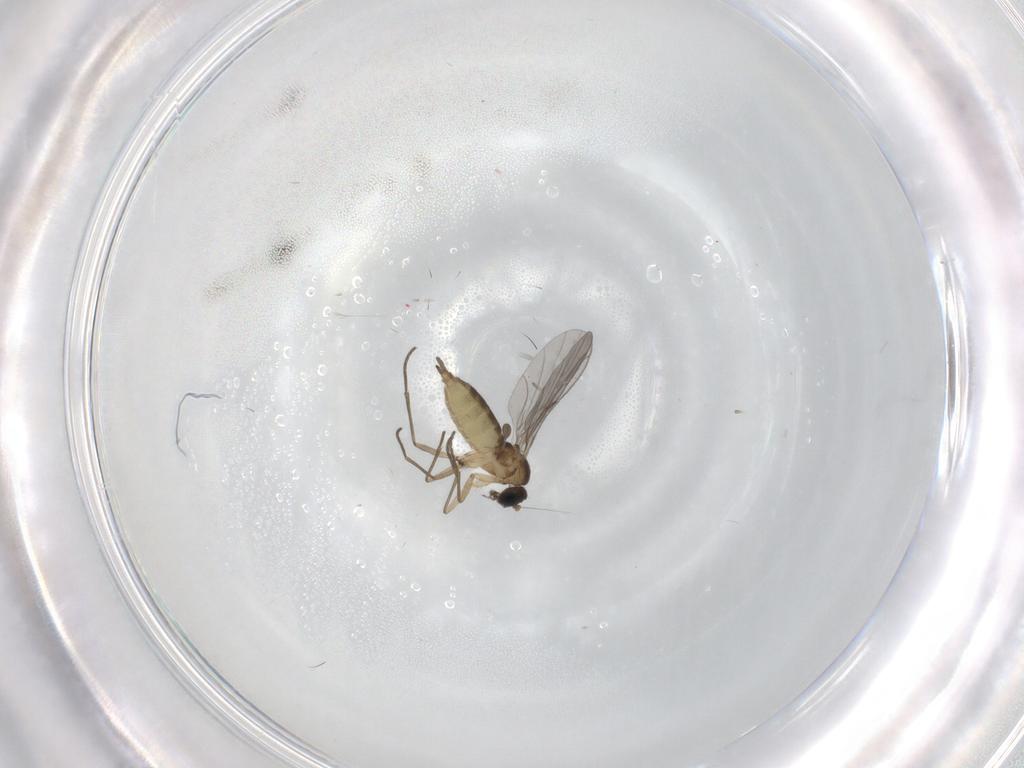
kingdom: Animalia
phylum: Arthropoda
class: Insecta
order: Diptera
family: Sciaridae
